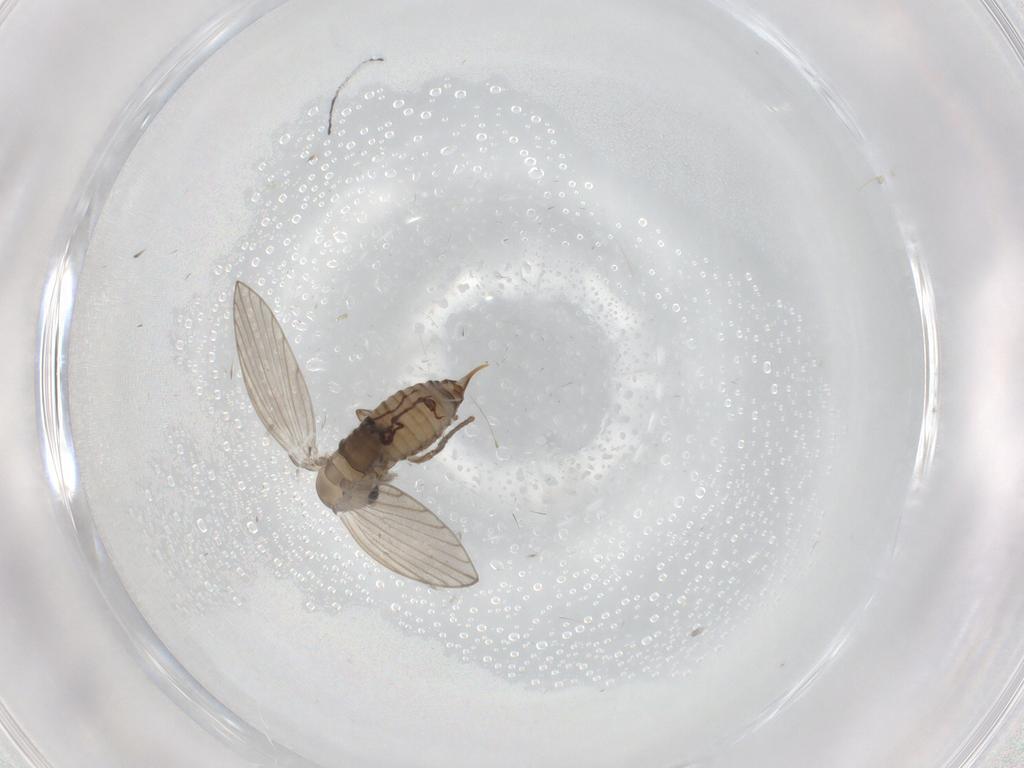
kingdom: Animalia
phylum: Arthropoda
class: Insecta
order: Diptera
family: Psychodidae
